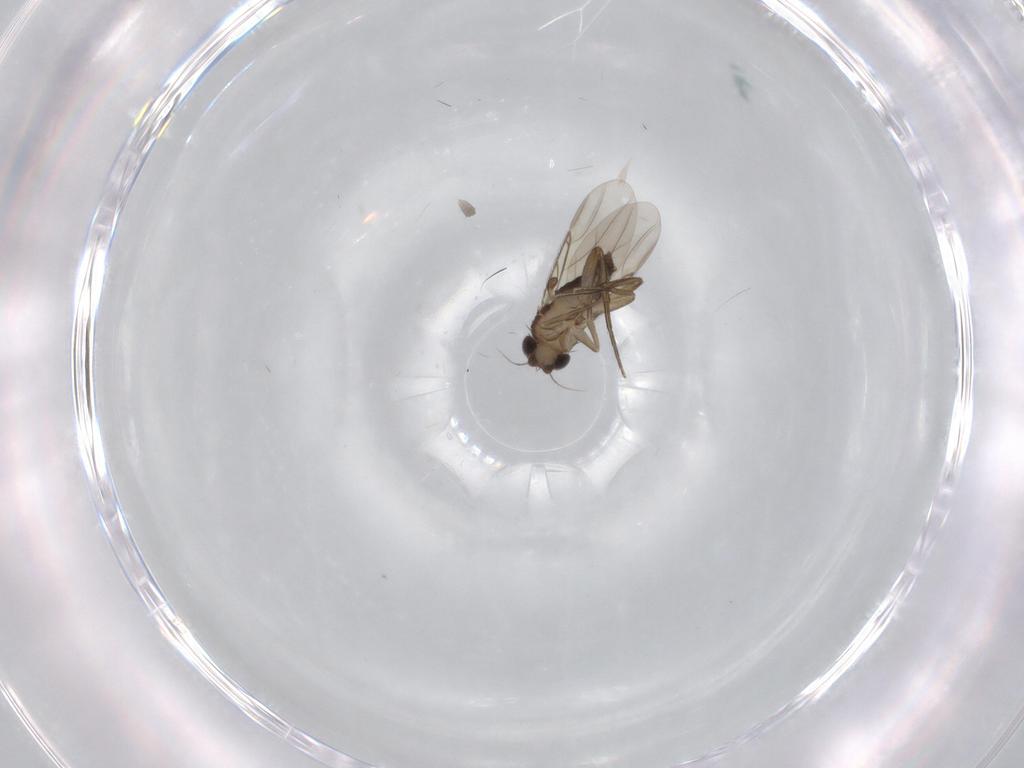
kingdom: Animalia
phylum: Arthropoda
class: Insecta
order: Diptera
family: Phoridae
